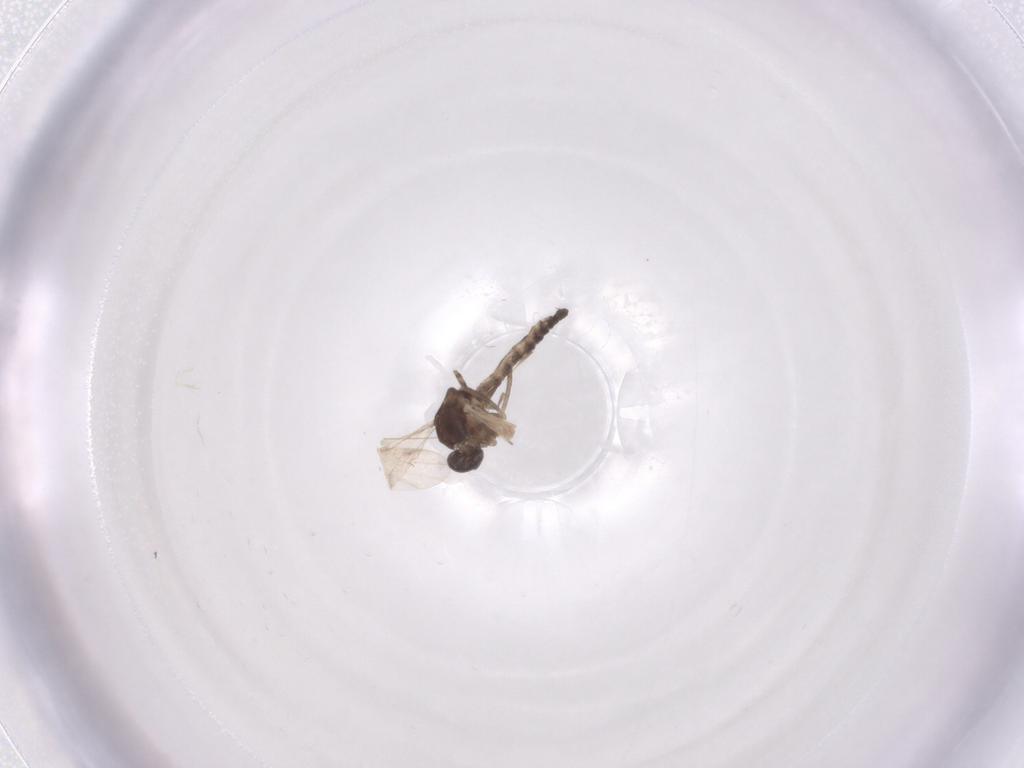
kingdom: Animalia
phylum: Arthropoda
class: Insecta
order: Diptera
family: Ceratopogonidae
